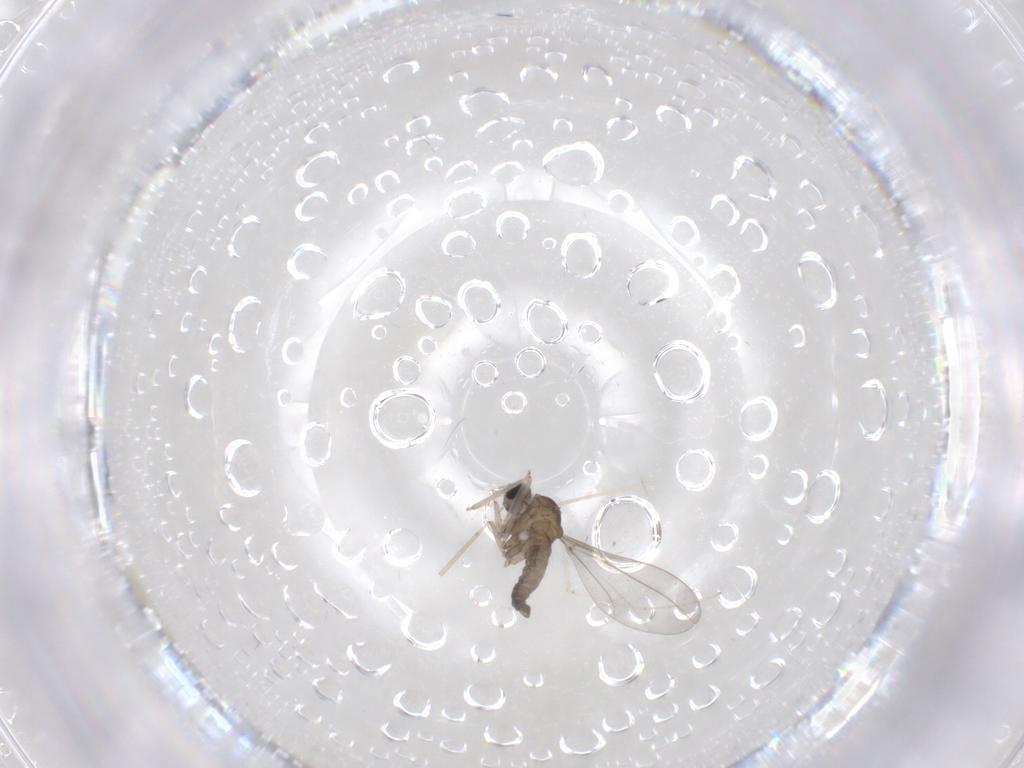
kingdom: Animalia
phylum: Arthropoda
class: Insecta
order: Diptera
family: Cecidomyiidae
